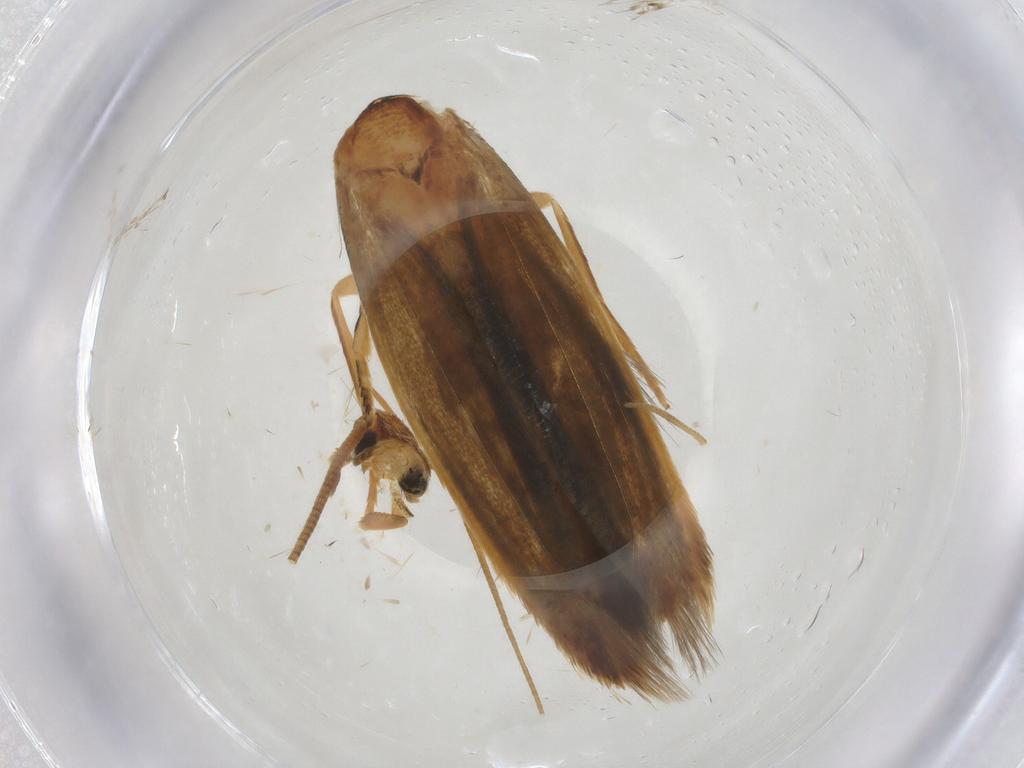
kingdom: Animalia
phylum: Arthropoda
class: Insecta
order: Lepidoptera
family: Tineidae
